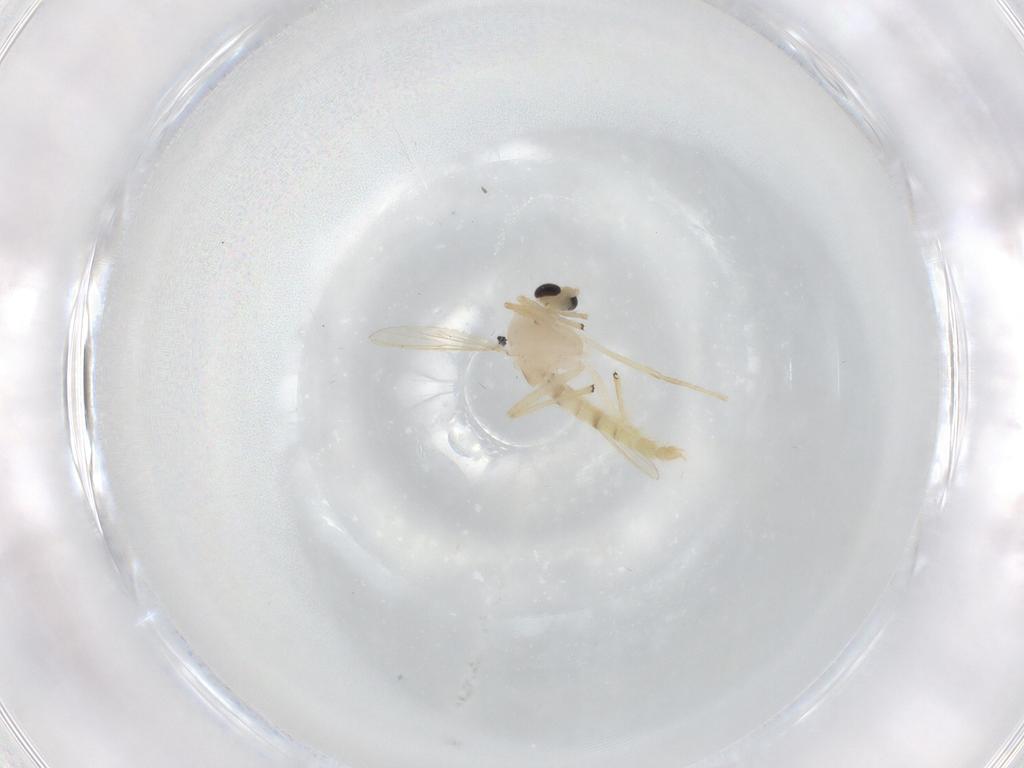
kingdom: Animalia
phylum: Arthropoda
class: Insecta
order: Diptera
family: Chironomidae
